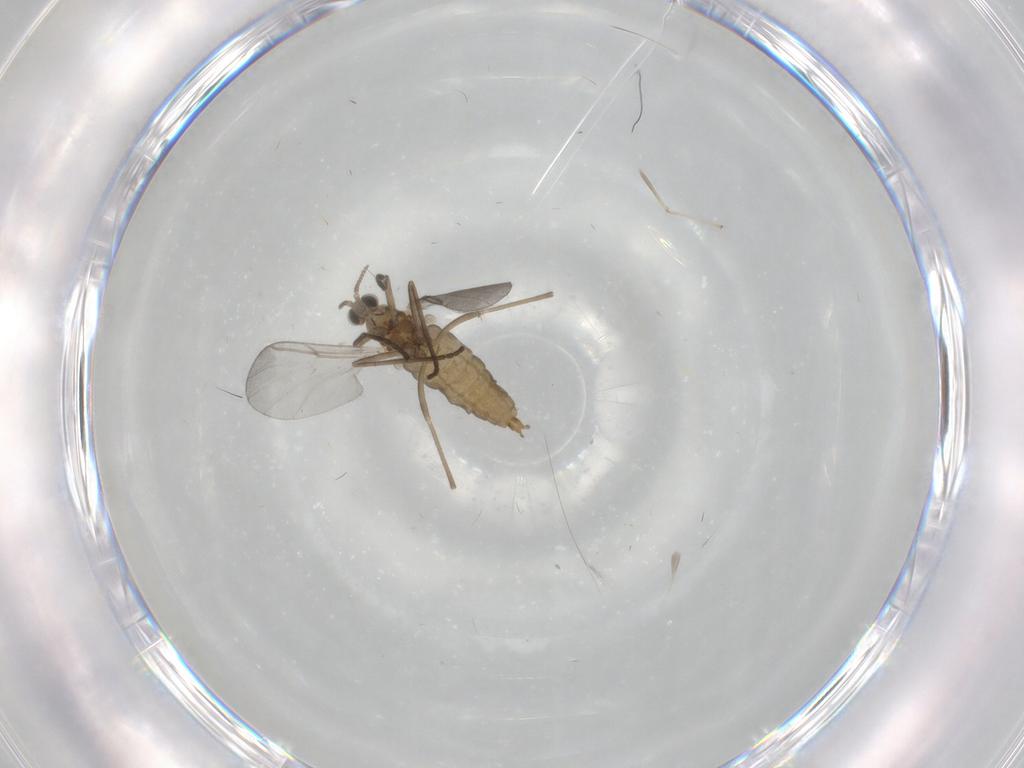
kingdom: Animalia
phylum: Arthropoda
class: Insecta
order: Diptera
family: Cecidomyiidae
